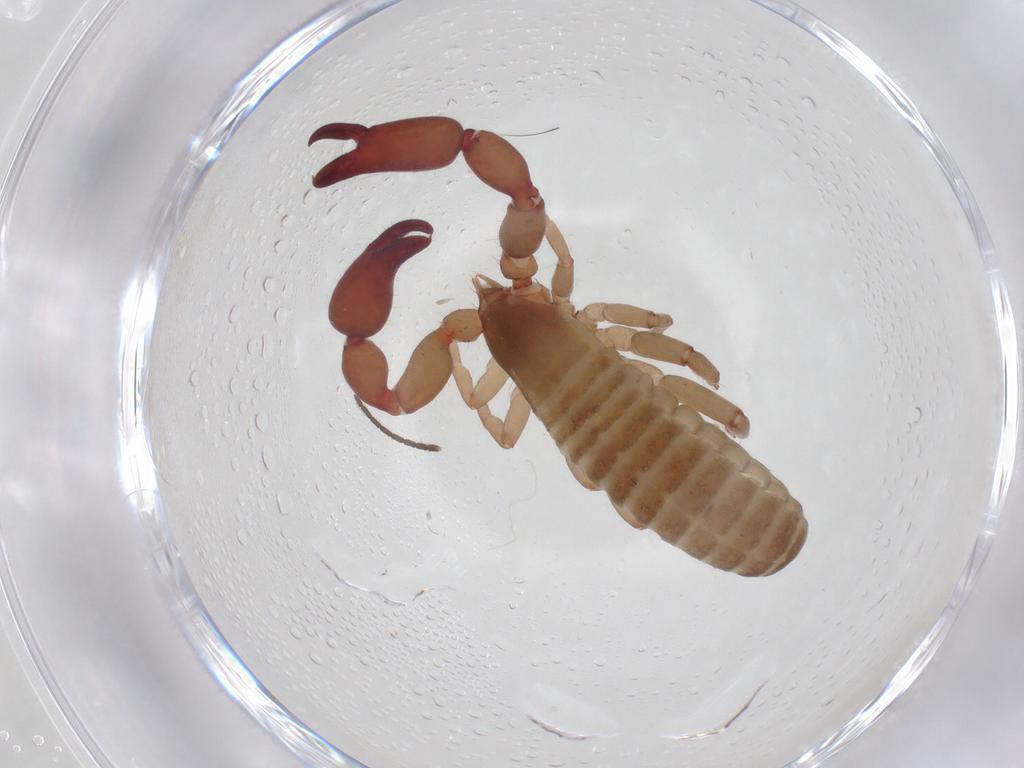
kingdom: Animalia
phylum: Arthropoda
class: Arachnida
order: Pseudoscorpiones
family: Atemnidae
